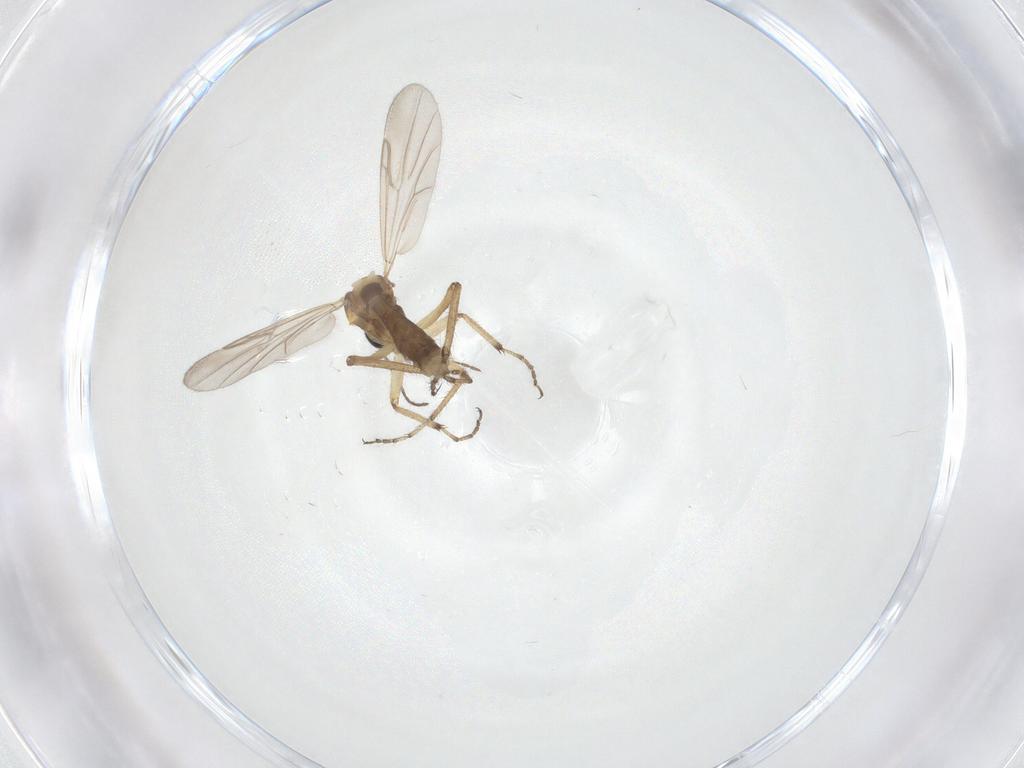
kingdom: Animalia
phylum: Arthropoda
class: Insecta
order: Diptera
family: Ceratopogonidae
